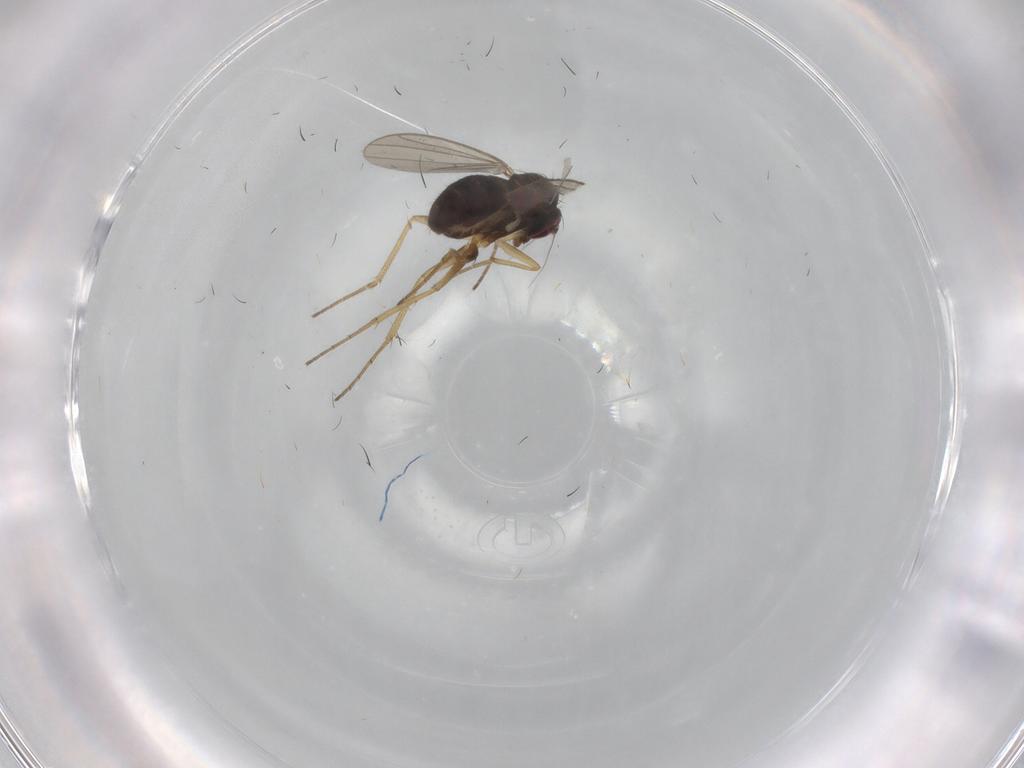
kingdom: Animalia
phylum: Arthropoda
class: Insecta
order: Diptera
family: Dolichopodidae
